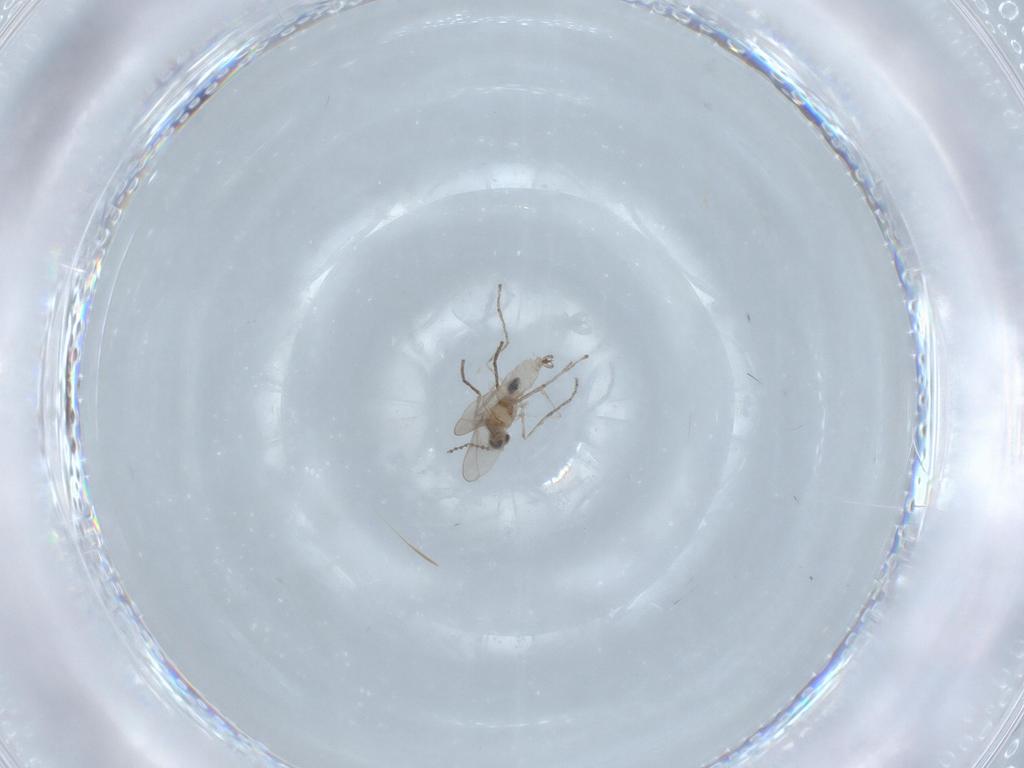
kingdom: Animalia
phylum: Arthropoda
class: Insecta
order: Diptera
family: Cecidomyiidae
